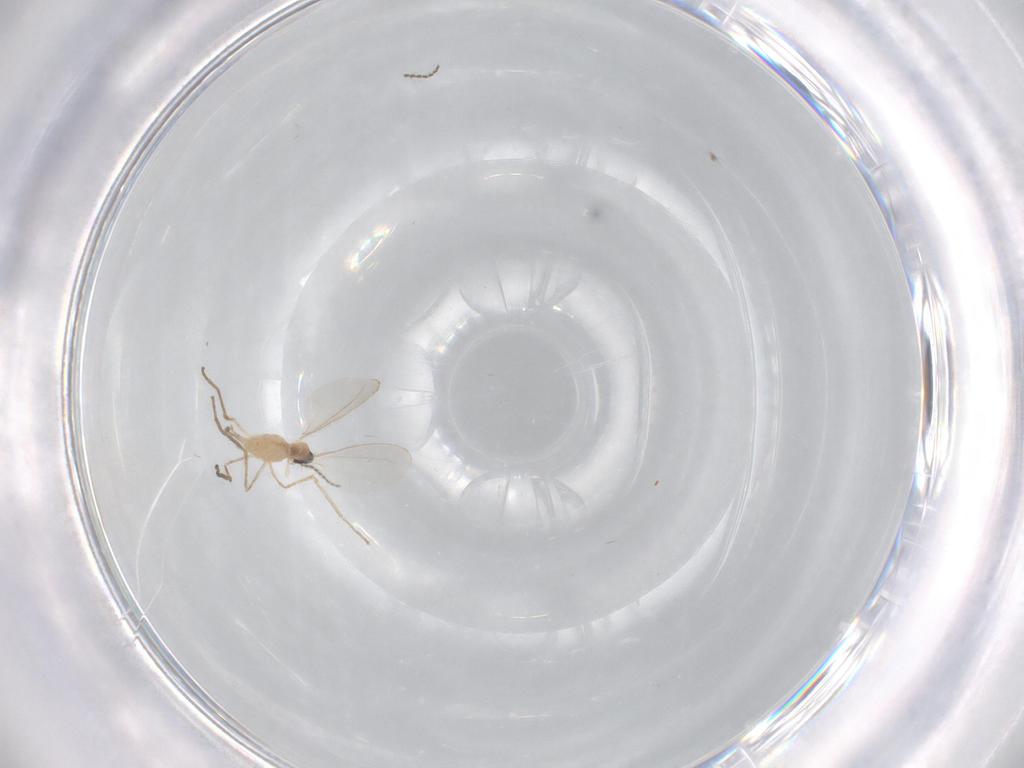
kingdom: Animalia
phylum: Arthropoda
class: Insecta
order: Diptera
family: Cecidomyiidae
